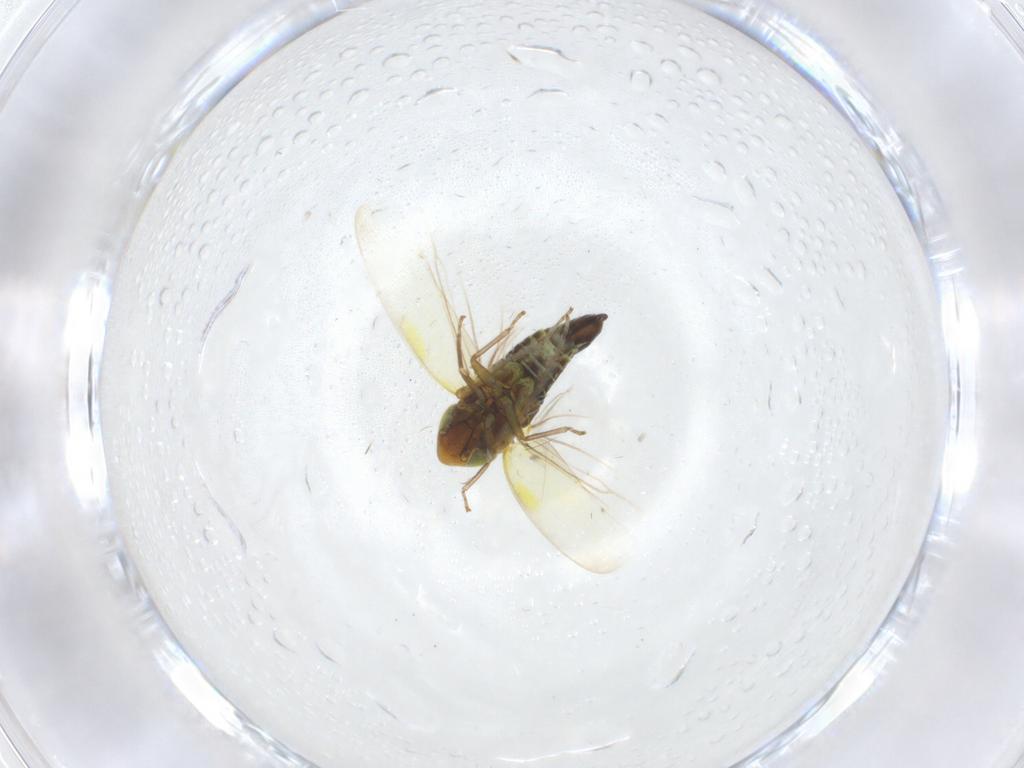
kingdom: Animalia
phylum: Arthropoda
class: Insecta
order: Hemiptera
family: Cicadellidae
